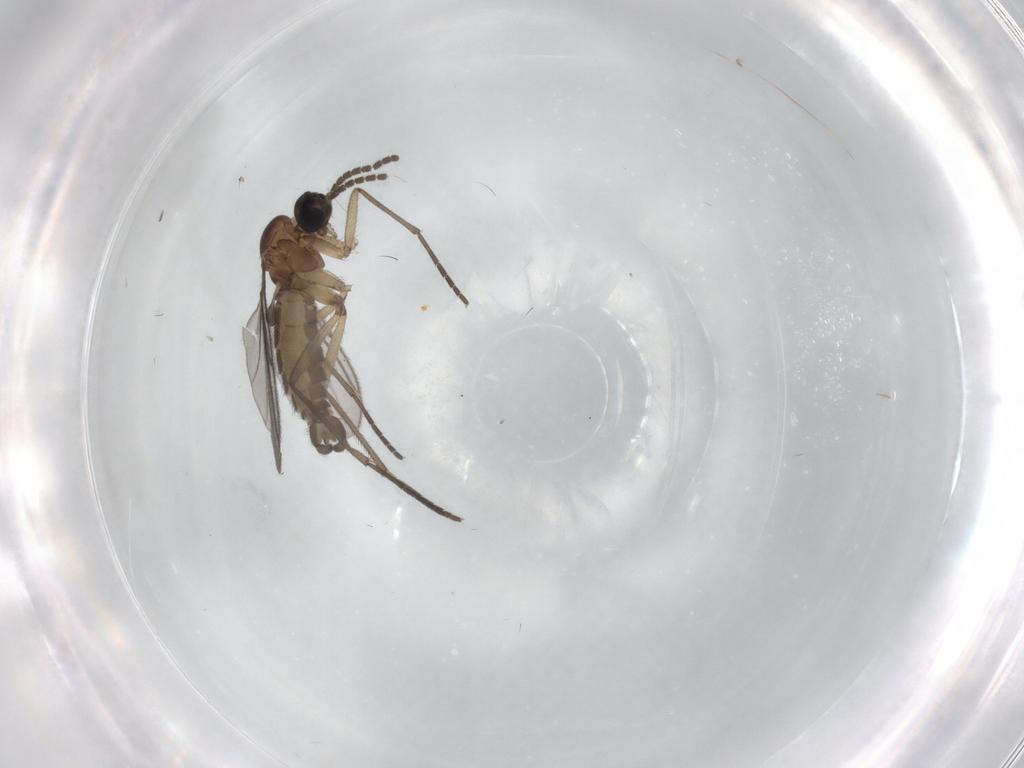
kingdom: Animalia
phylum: Arthropoda
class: Insecta
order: Diptera
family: Sciaridae
